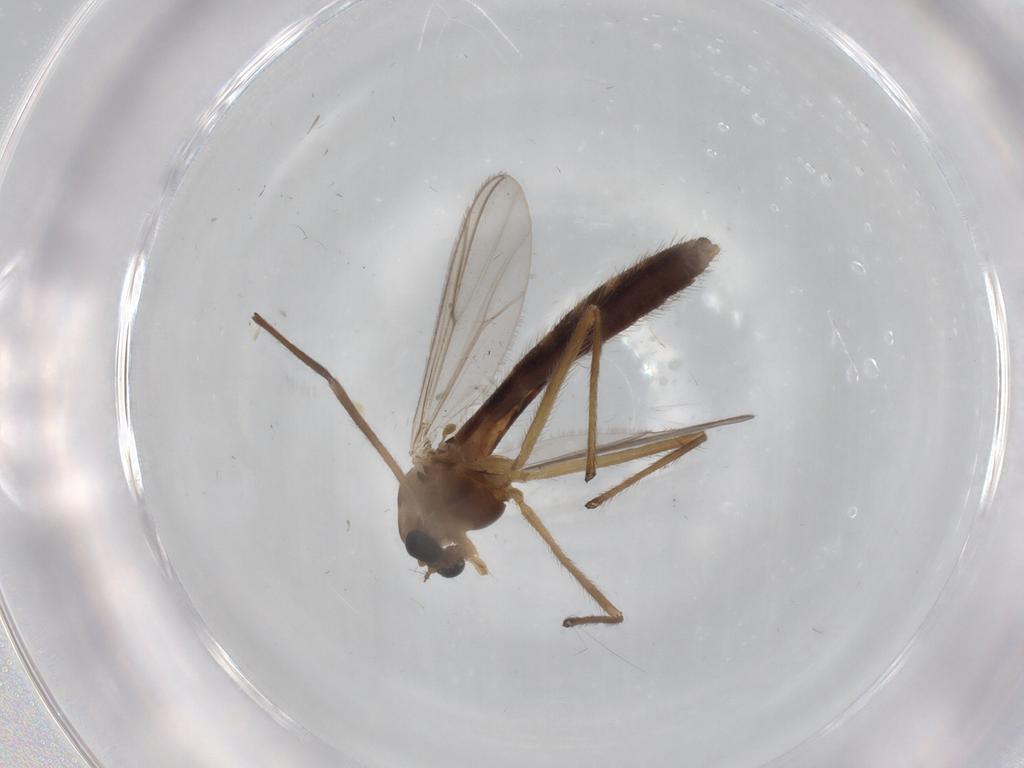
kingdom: Animalia
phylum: Arthropoda
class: Insecta
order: Diptera
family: Chironomidae
